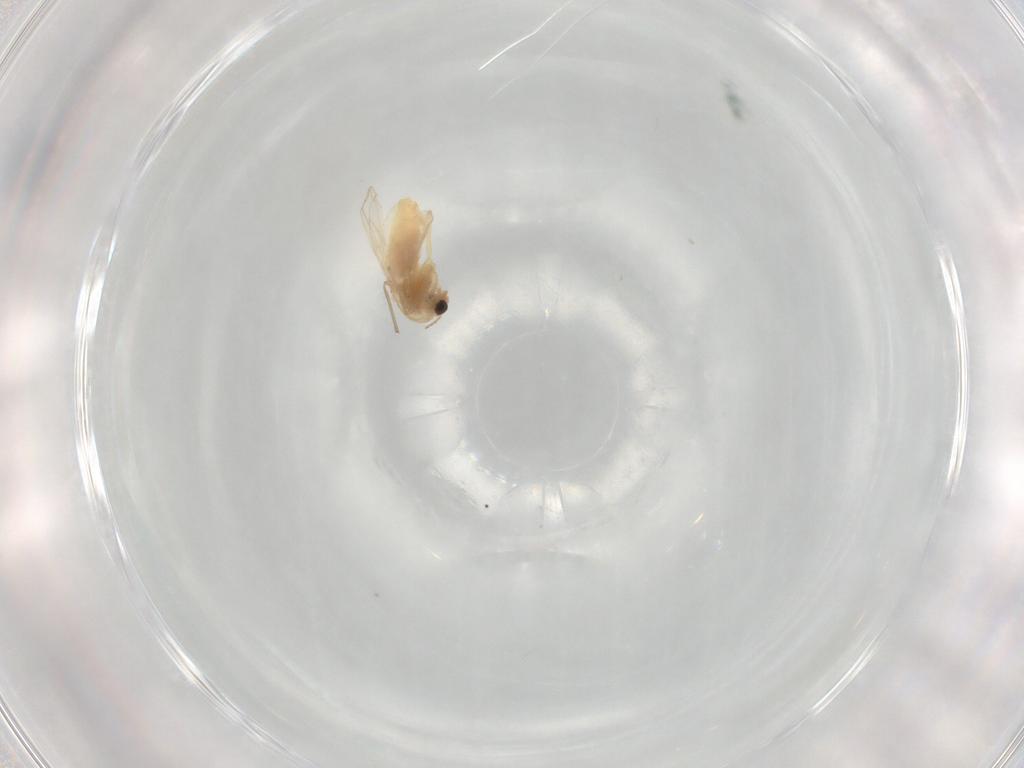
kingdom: Animalia
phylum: Arthropoda
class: Insecta
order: Diptera
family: Chironomidae
